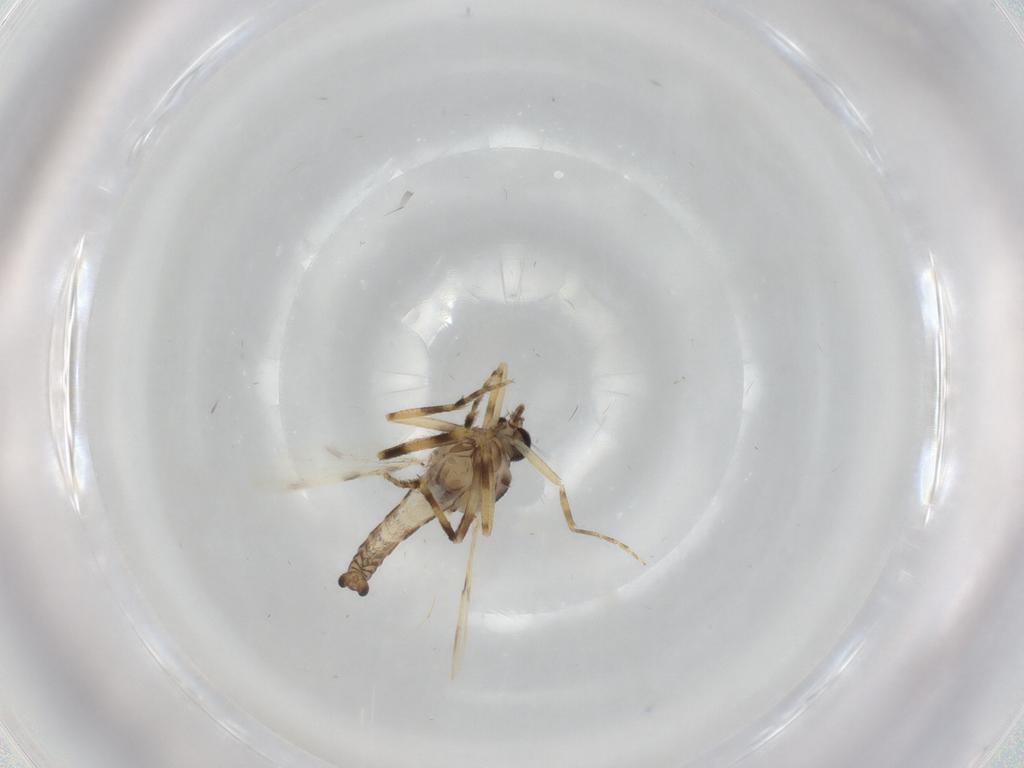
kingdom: Animalia
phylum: Arthropoda
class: Insecta
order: Diptera
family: Ceratopogonidae
